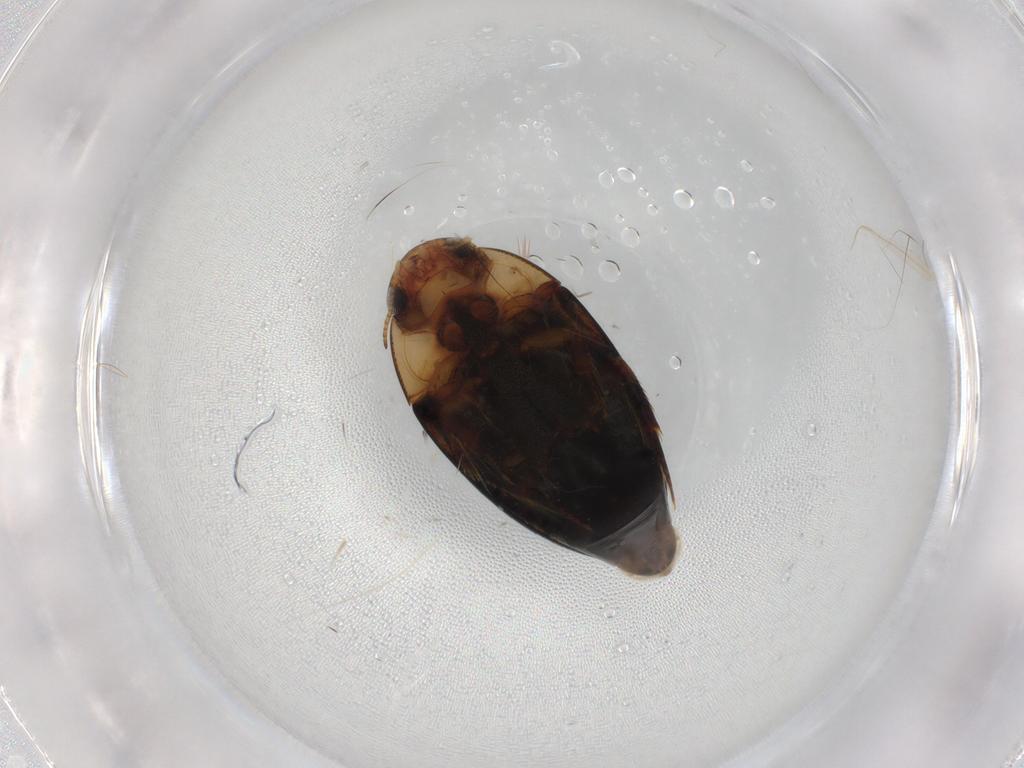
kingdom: Animalia
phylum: Arthropoda
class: Insecta
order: Coleoptera
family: Noteridae
